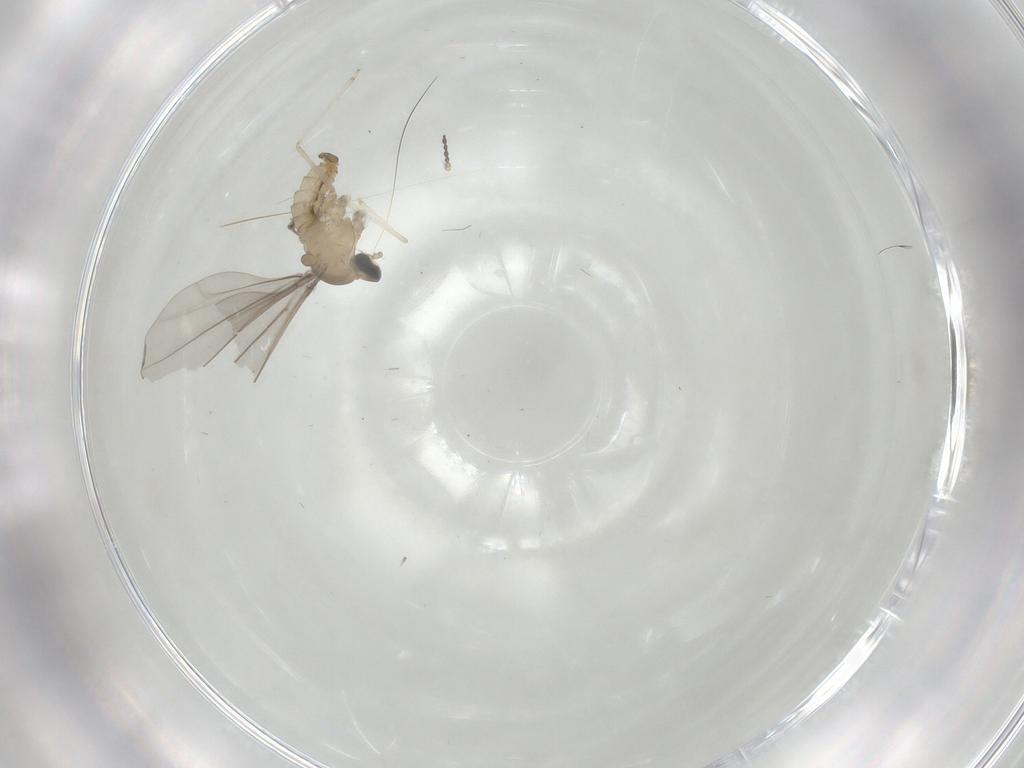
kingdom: Animalia
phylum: Arthropoda
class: Insecta
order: Diptera
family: Cecidomyiidae
